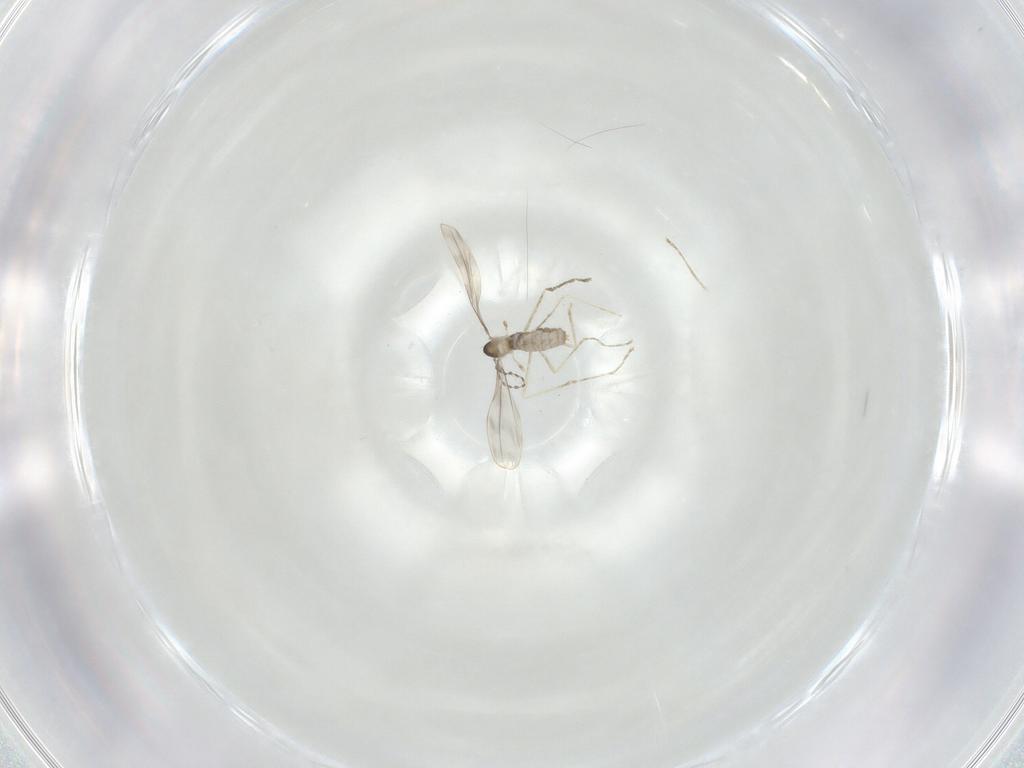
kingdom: Animalia
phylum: Arthropoda
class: Insecta
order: Diptera
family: Cecidomyiidae
